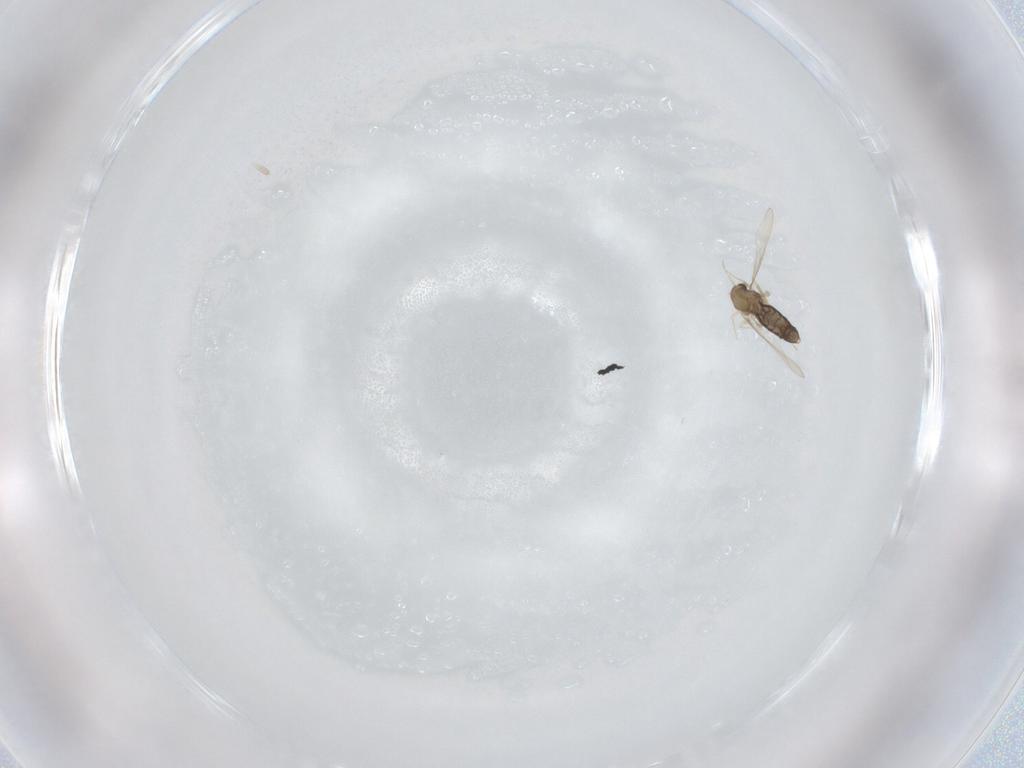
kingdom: Animalia
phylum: Arthropoda
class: Insecta
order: Diptera
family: Chironomidae
